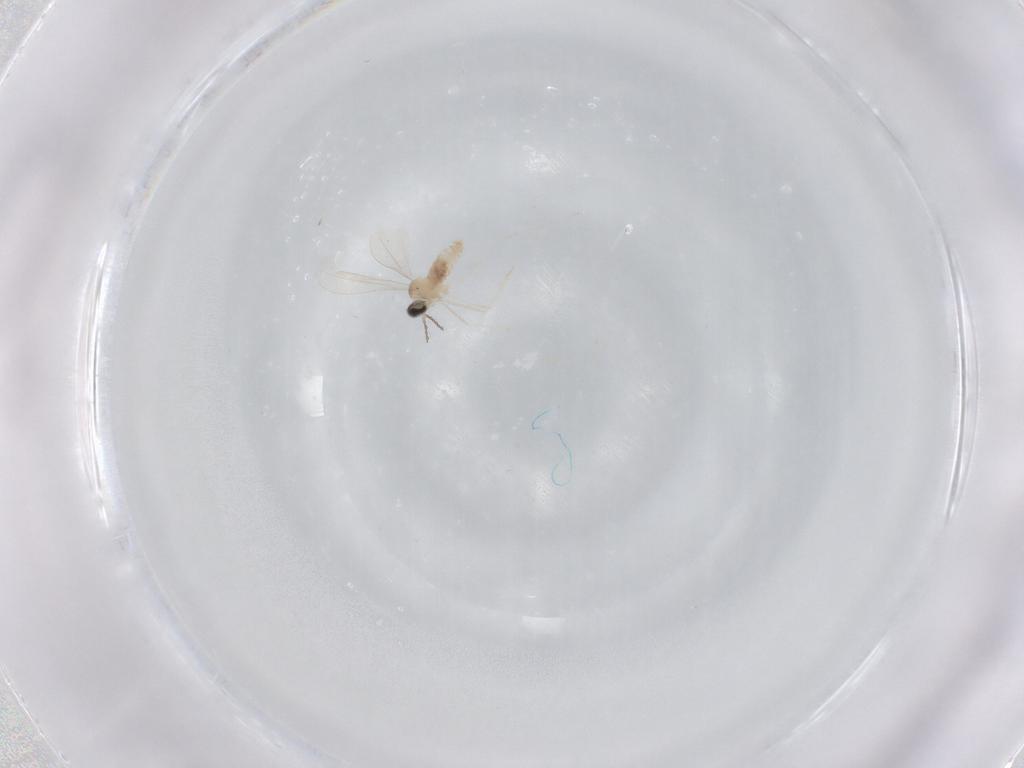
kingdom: Animalia
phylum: Arthropoda
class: Insecta
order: Diptera
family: Cecidomyiidae
